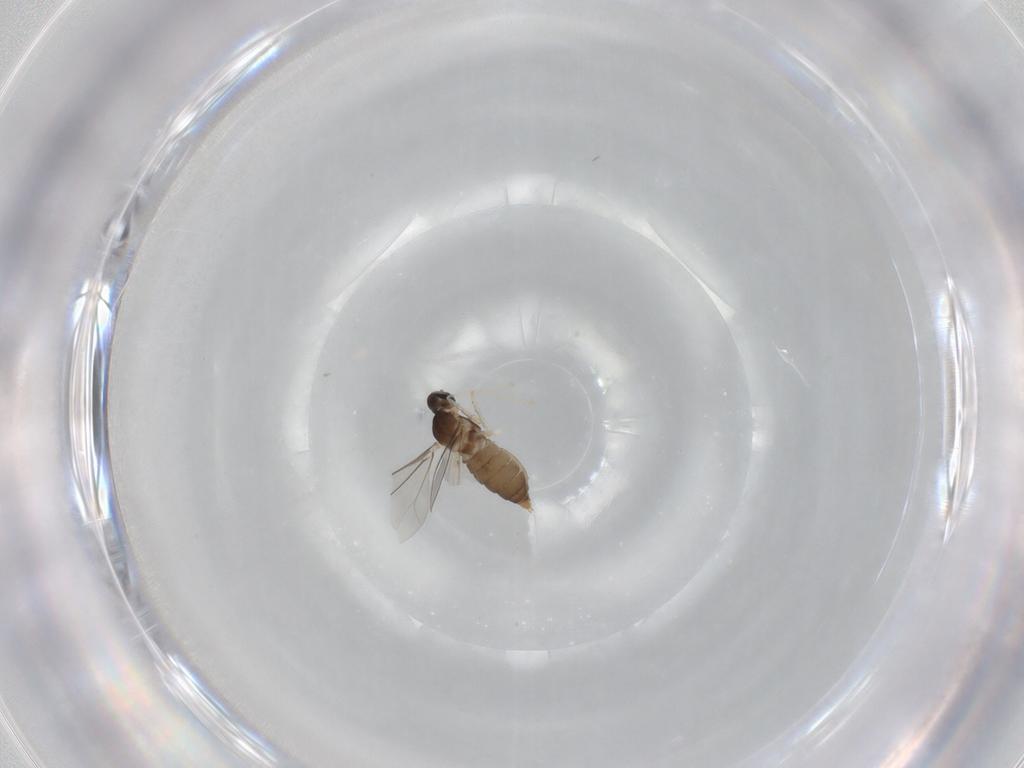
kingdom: Animalia
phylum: Arthropoda
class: Insecta
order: Diptera
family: Cecidomyiidae
